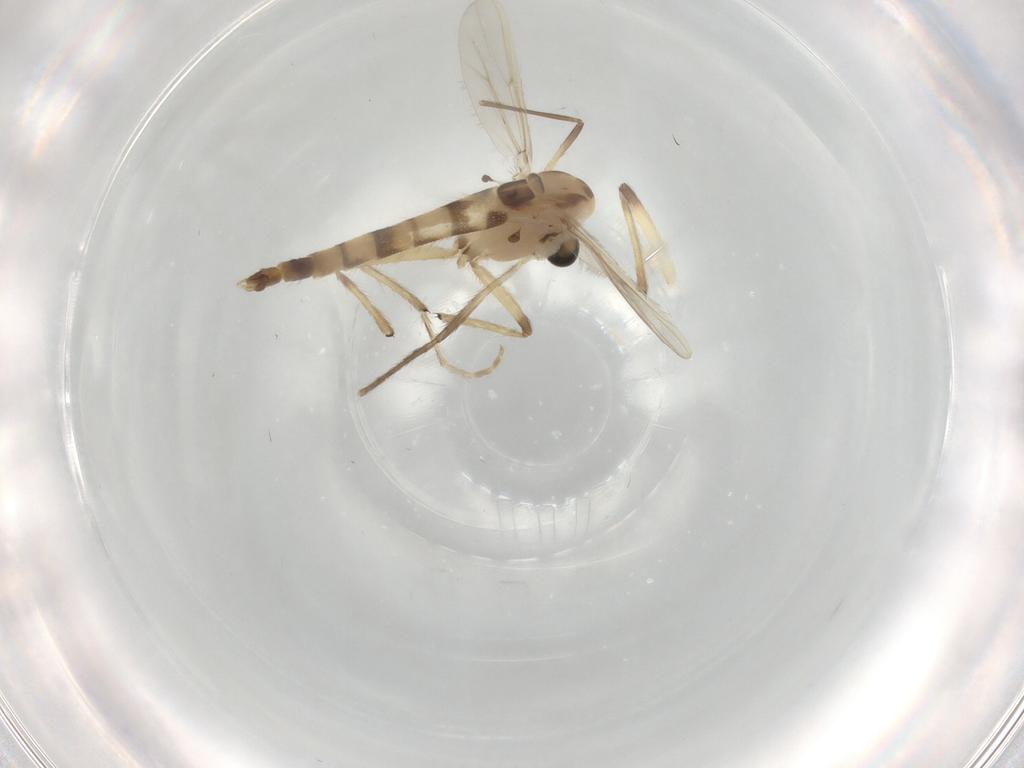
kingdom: Animalia
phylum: Arthropoda
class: Insecta
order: Diptera
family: Chironomidae
